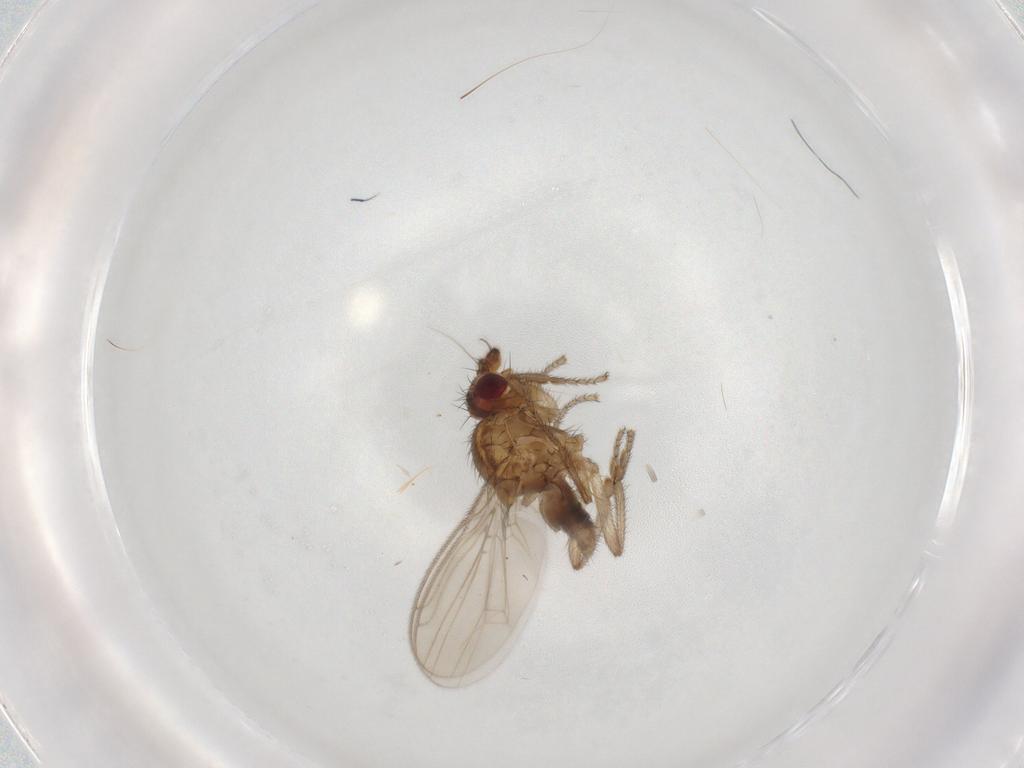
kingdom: Animalia
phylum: Arthropoda
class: Insecta
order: Diptera
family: Sphaeroceridae
